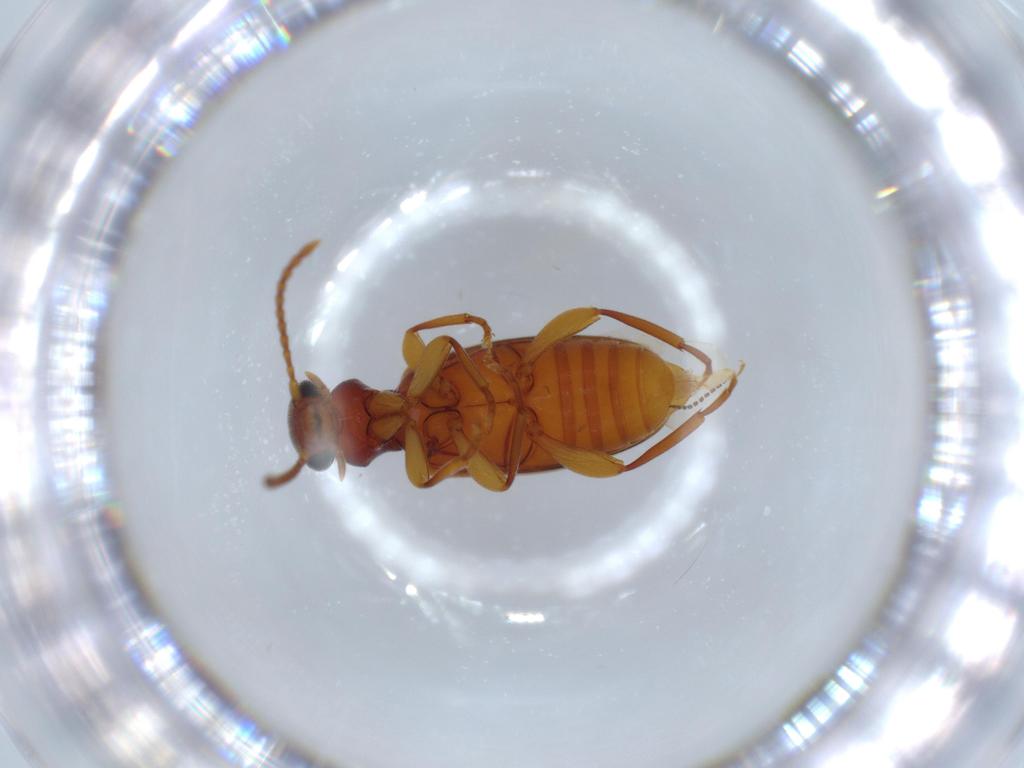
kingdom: Animalia
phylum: Arthropoda
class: Insecta
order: Coleoptera
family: Anthicidae
